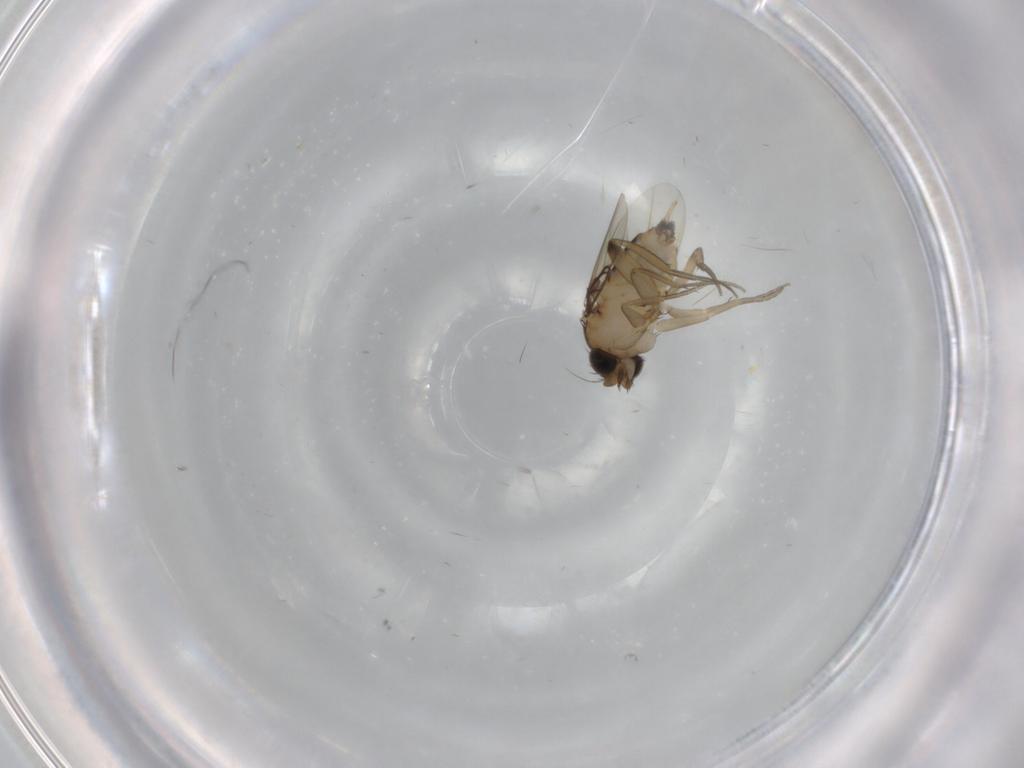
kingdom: Animalia
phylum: Arthropoda
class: Insecta
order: Diptera
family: Phoridae
